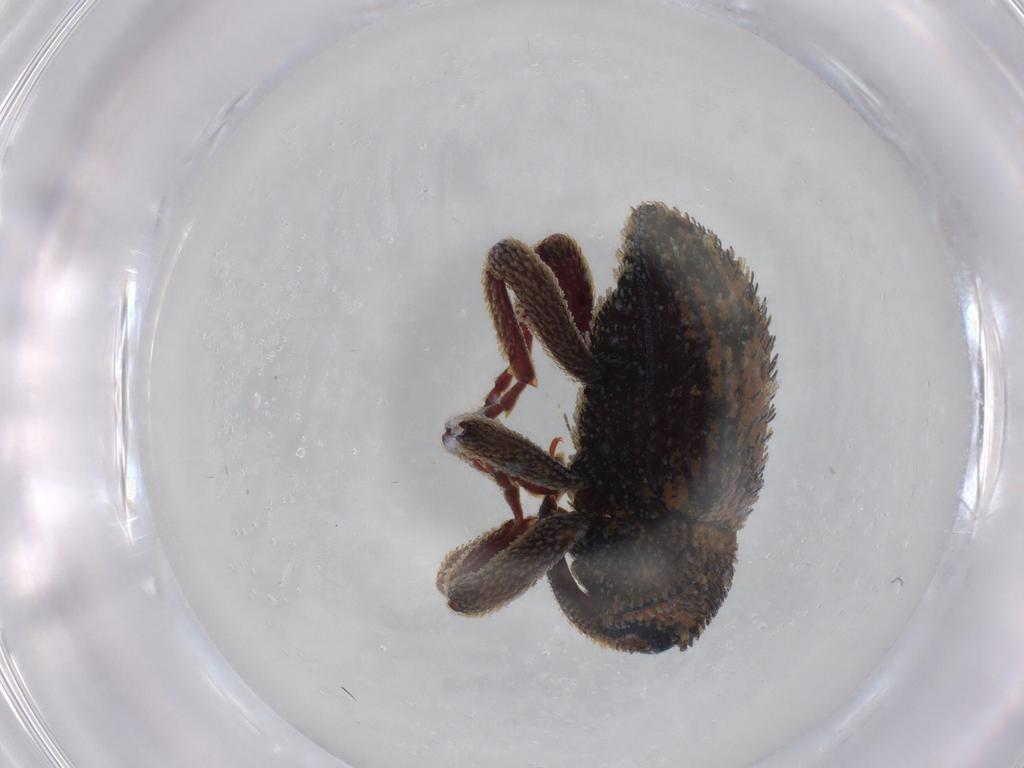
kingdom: Animalia
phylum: Arthropoda
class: Insecta
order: Coleoptera
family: Curculionidae
